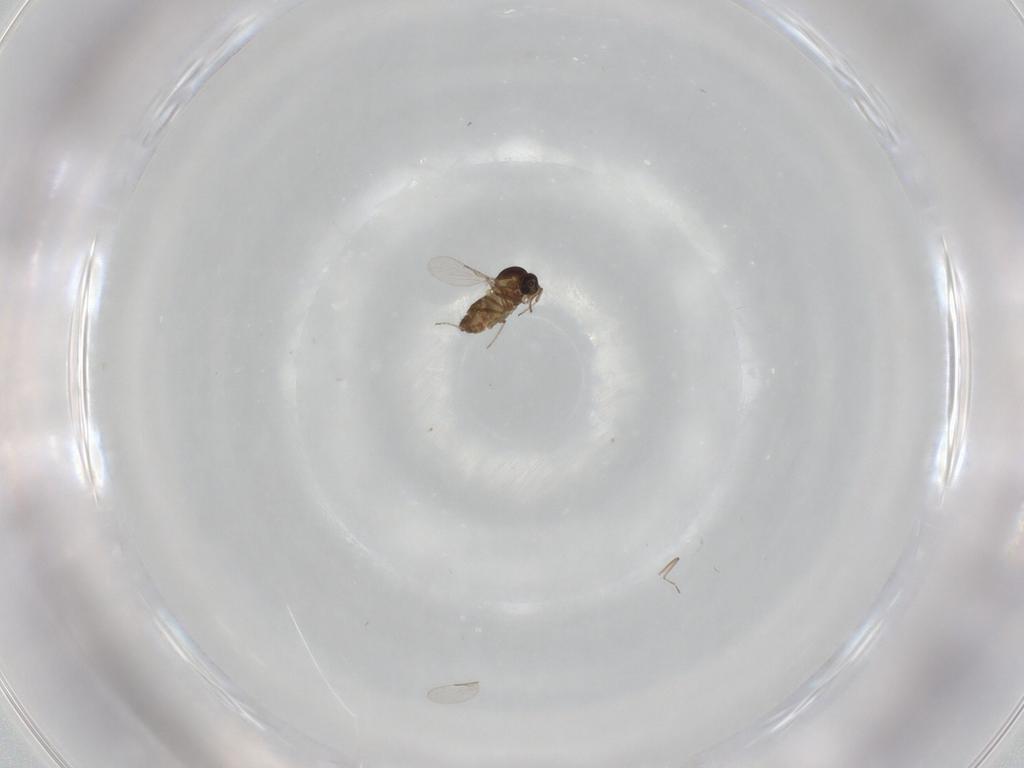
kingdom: Animalia
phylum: Arthropoda
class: Insecta
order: Diptera
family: Ceratopogonidae
